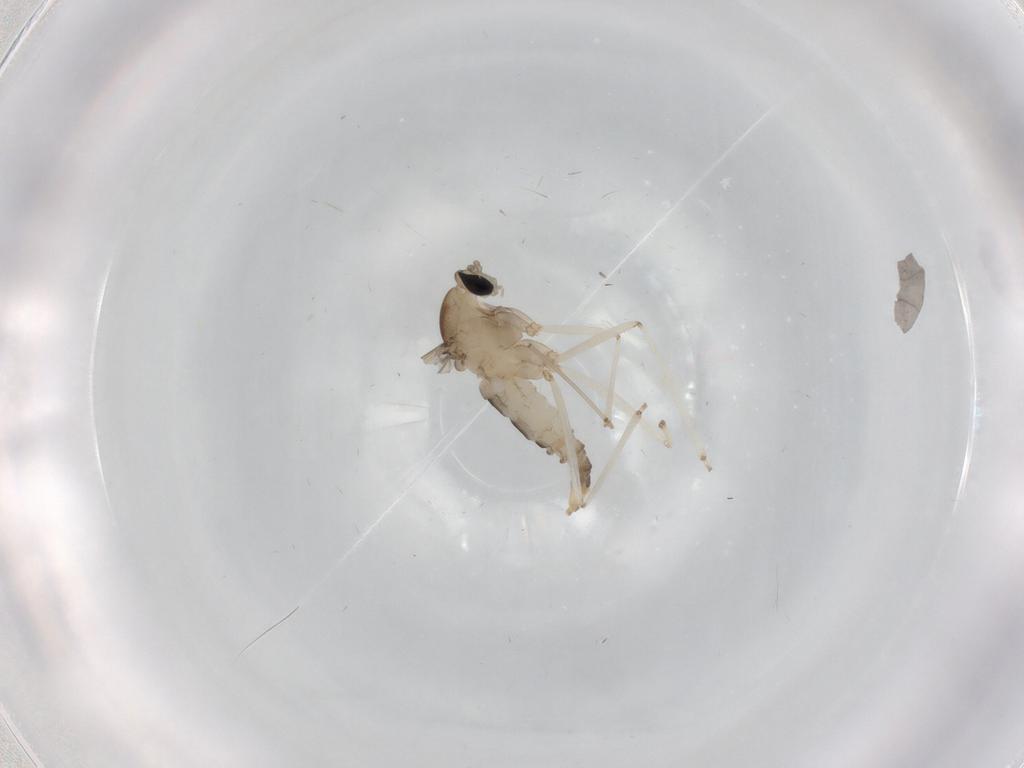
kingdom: Animalia
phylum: Arthropoda
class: Insecta
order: Diptera
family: Cecidomyiidae
